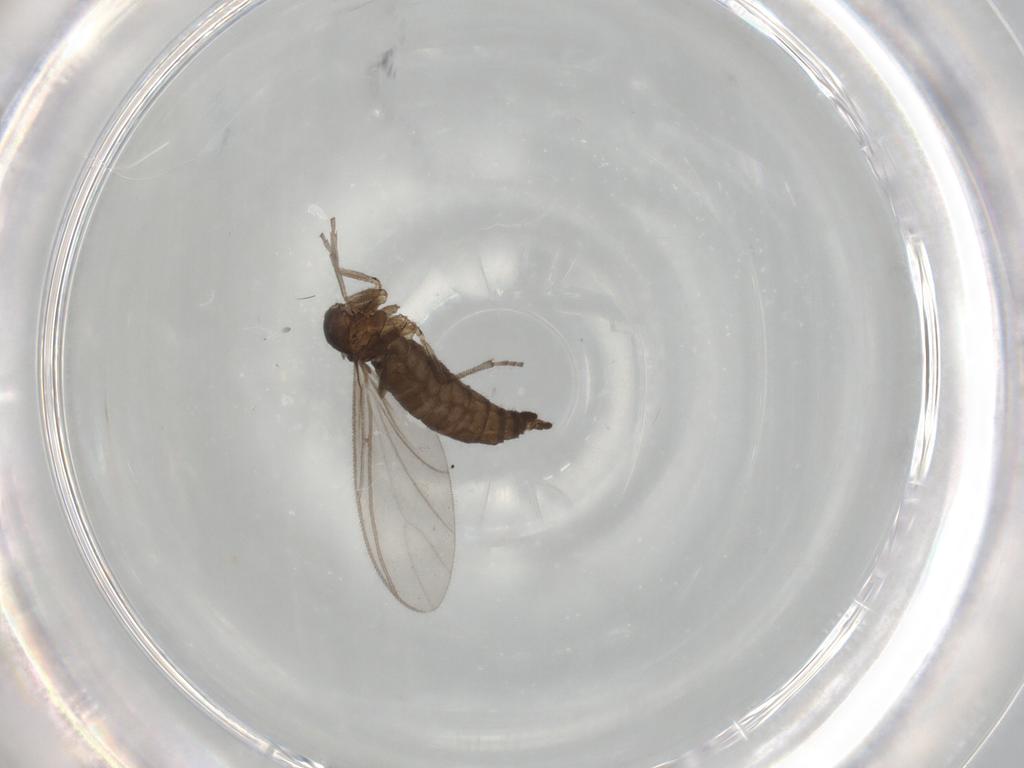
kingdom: Animalia
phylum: Arthropoda
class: Insecta
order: Diptera
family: Chironomidae
